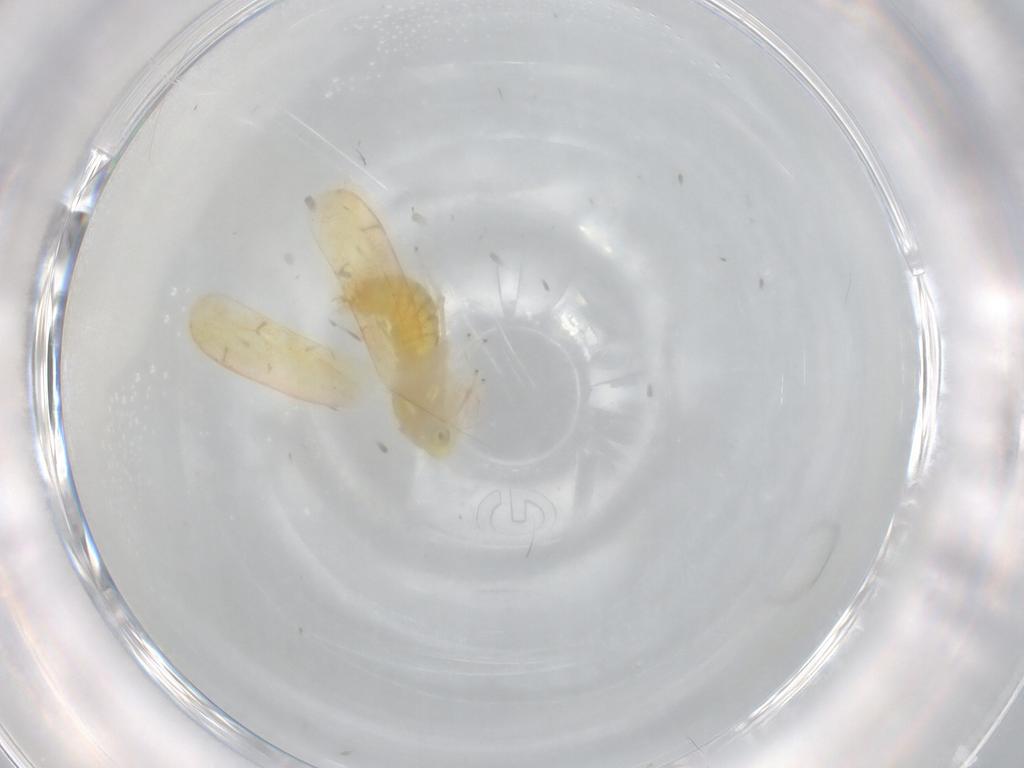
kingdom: Animalia
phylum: Arthropoda
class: Insecta
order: Hemiptera
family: Cicadellidae
